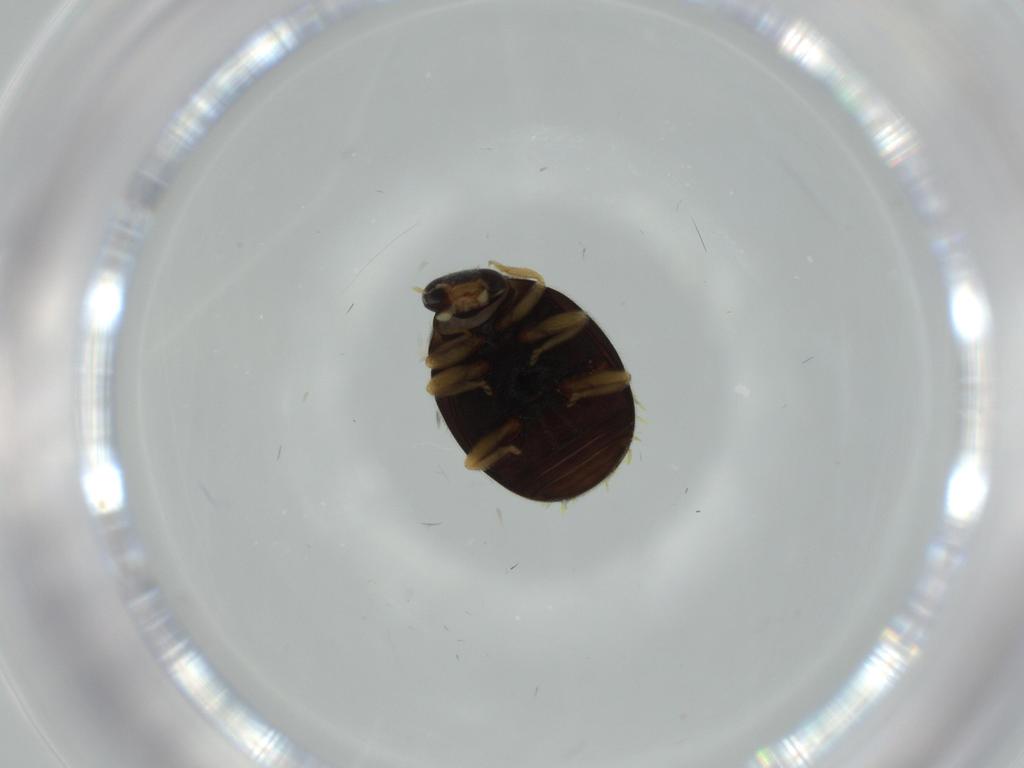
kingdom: Animalia
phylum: Arthropoda
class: Insecta
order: Coleoptera
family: Coccinellidae
